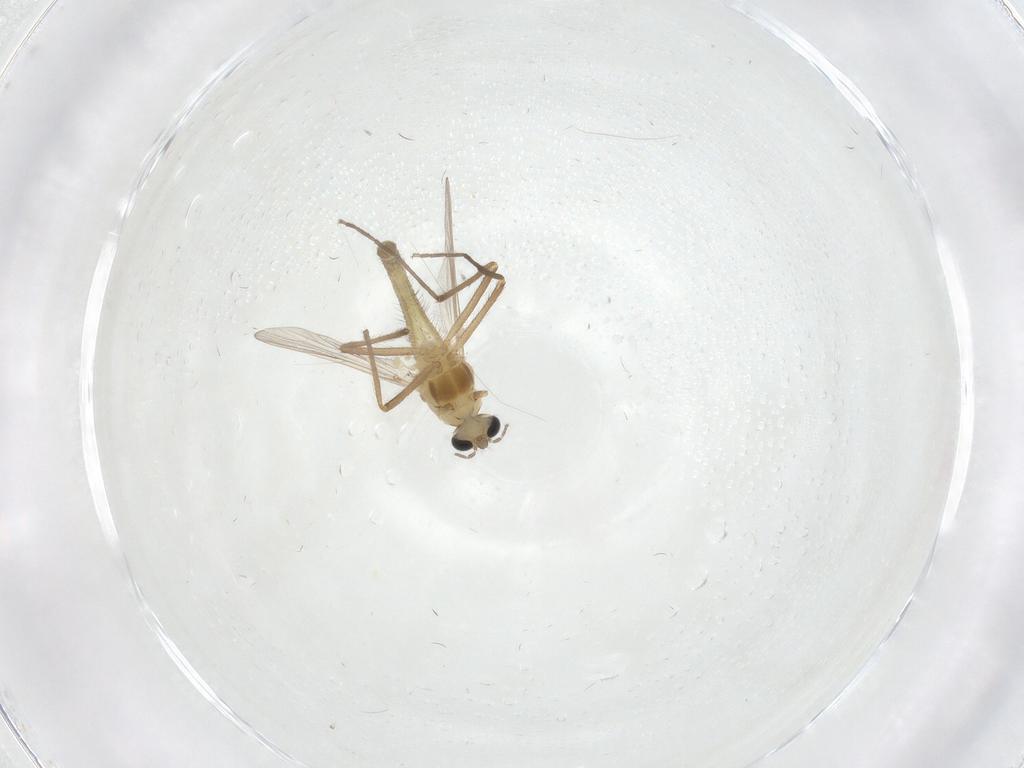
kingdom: Animalia
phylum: Arthropoda
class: Insecta
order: Diptera
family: Chironomidae
